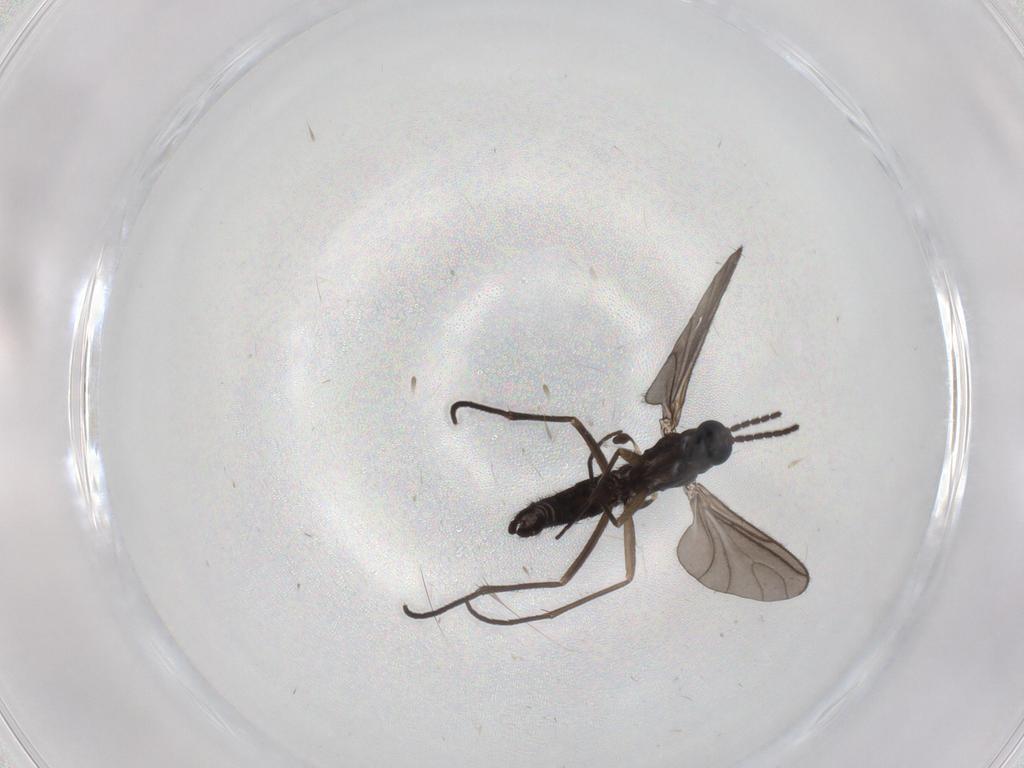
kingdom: Animalia
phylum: Arthropoda
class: Insecta
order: Diptera
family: Sciaridae
